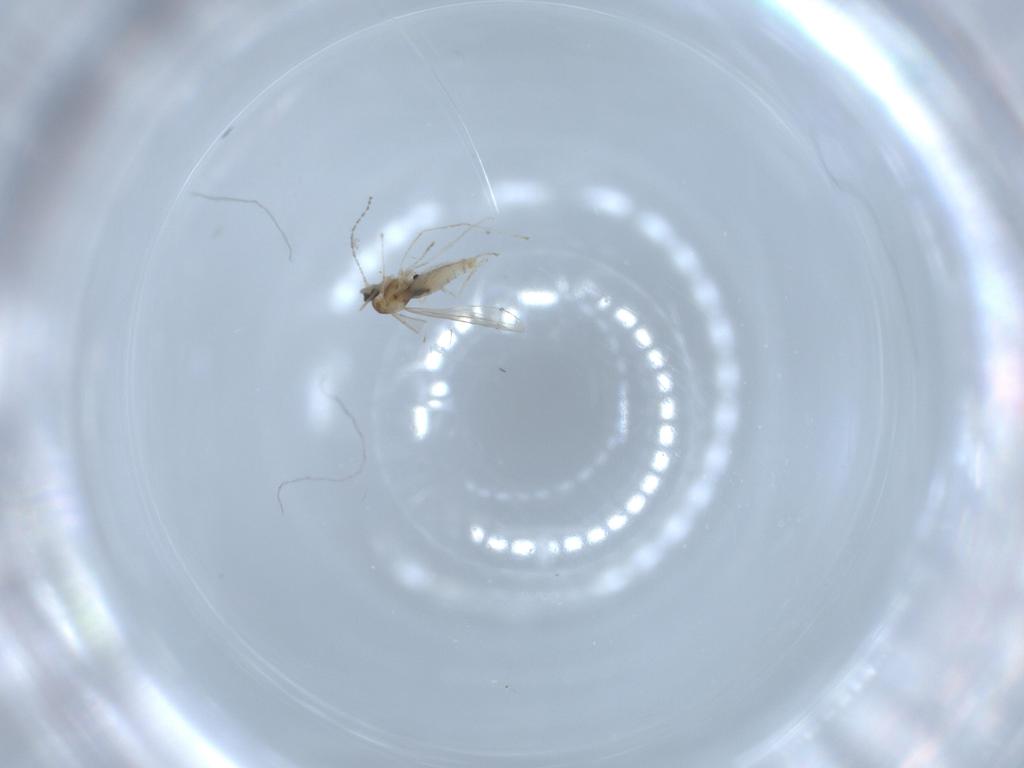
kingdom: Animalia
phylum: Arthropoda
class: Insecta
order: Diptera
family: Cecidomyiidae
